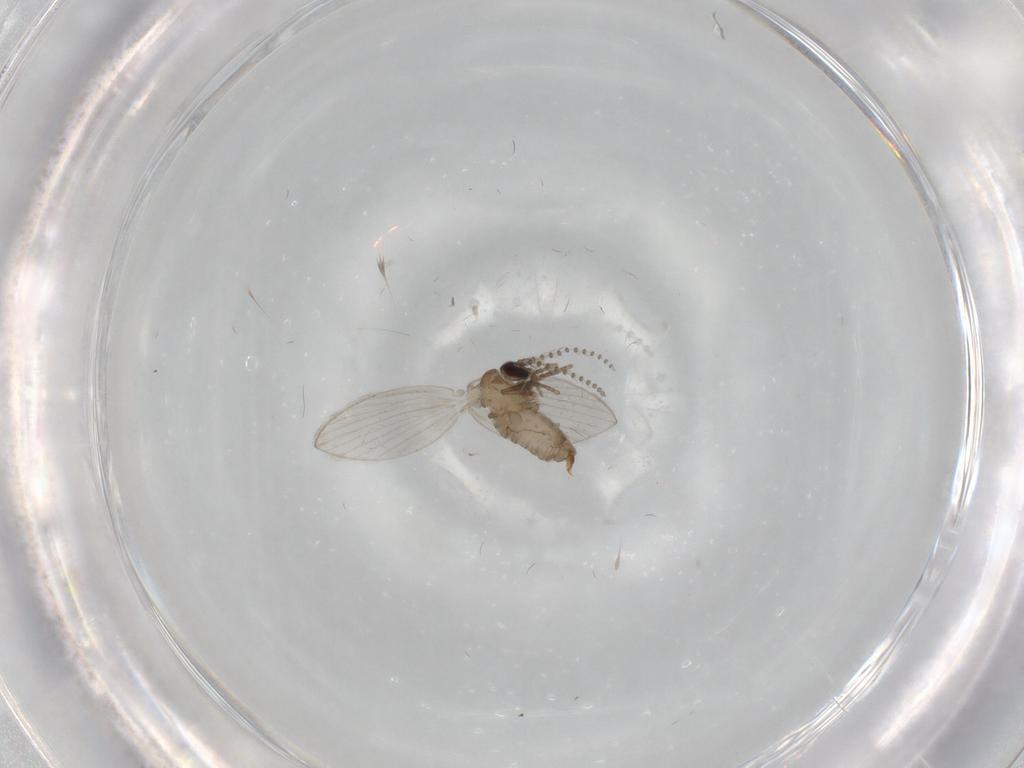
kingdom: Animalia
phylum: Arthropoda
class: Insecta
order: Diptera
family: Psychodidae
